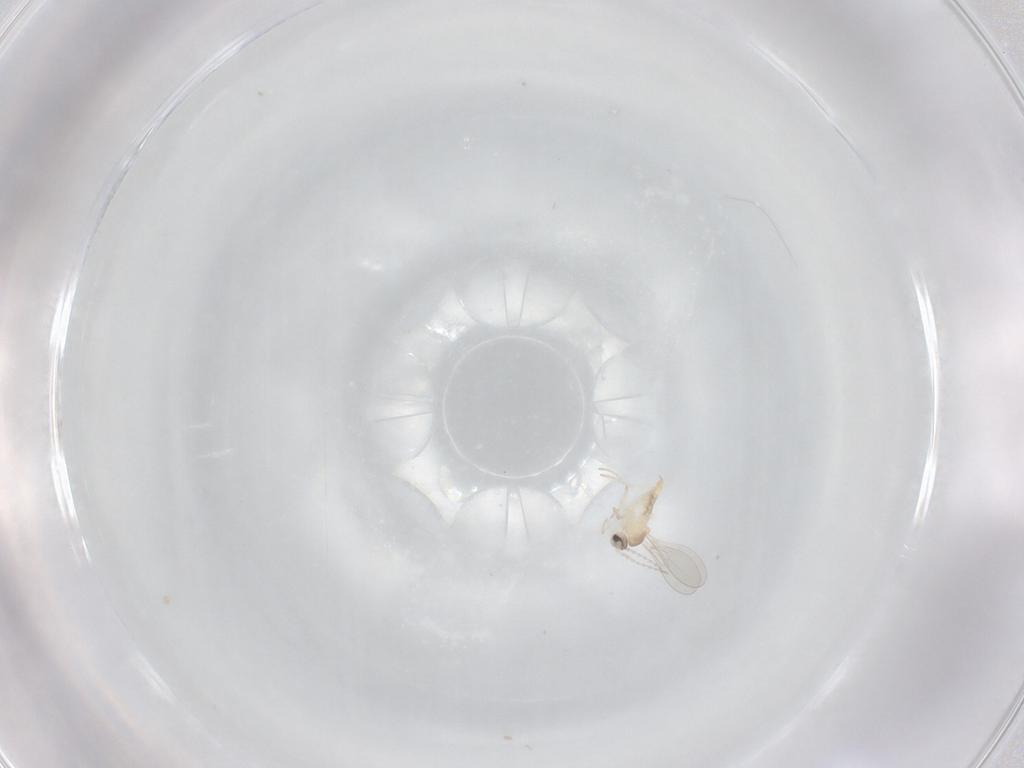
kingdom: Animalia
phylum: Arthropoda
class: Insecta
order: Diptera
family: Cecidomyiidae
